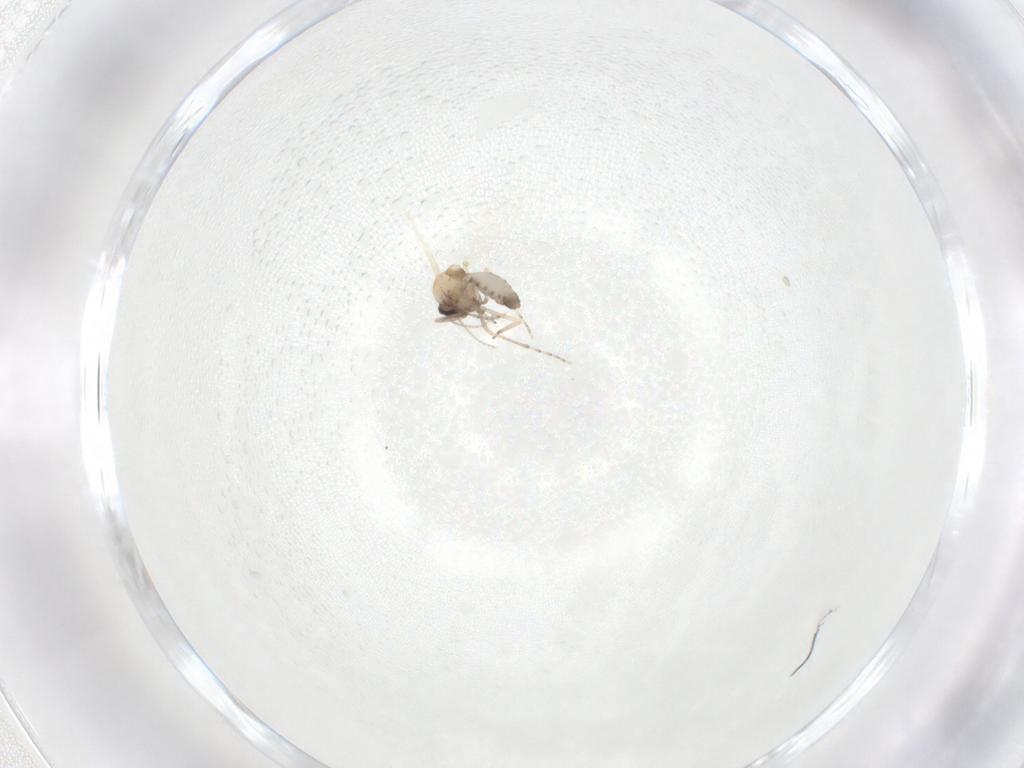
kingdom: Animalia
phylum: Arthropoda
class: Insecta
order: Diptera
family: Ceratopogonidae
